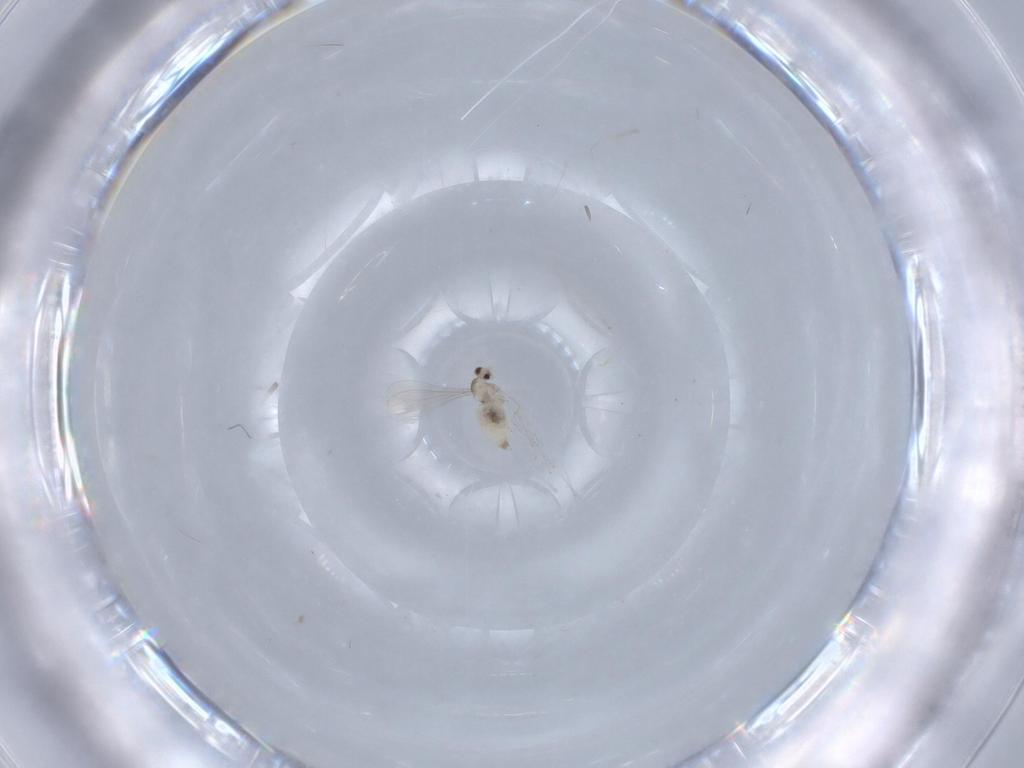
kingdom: Animalia
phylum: Arthropoda
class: Insecta
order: Diptera
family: Cecidomyiidae
